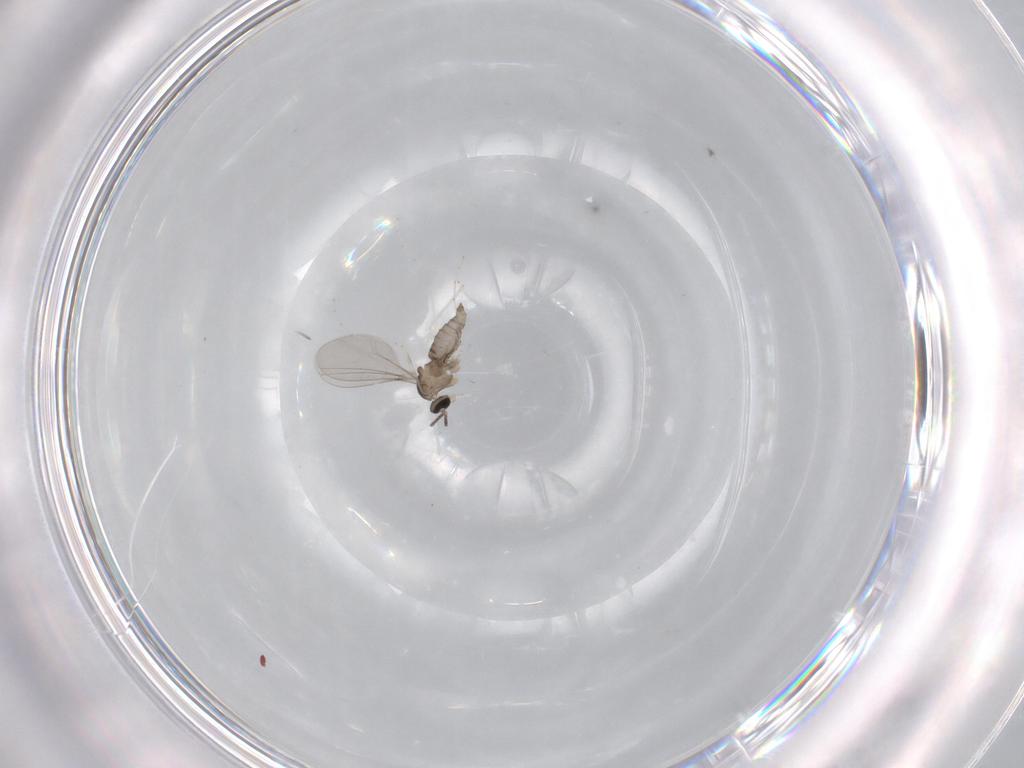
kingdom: Animalia
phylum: Arthropoda
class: Insecta
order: Diptera
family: Cecidomyiidae
